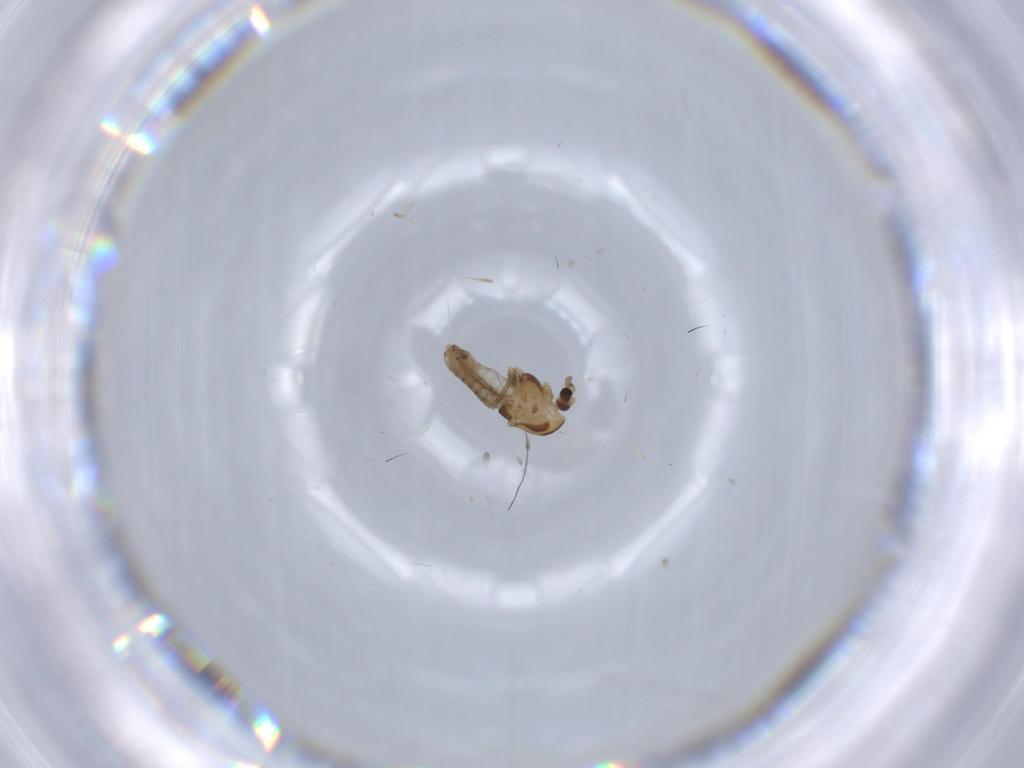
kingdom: Animalia
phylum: Arthropoda
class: Insecta
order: Diptera
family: Chironomidae
